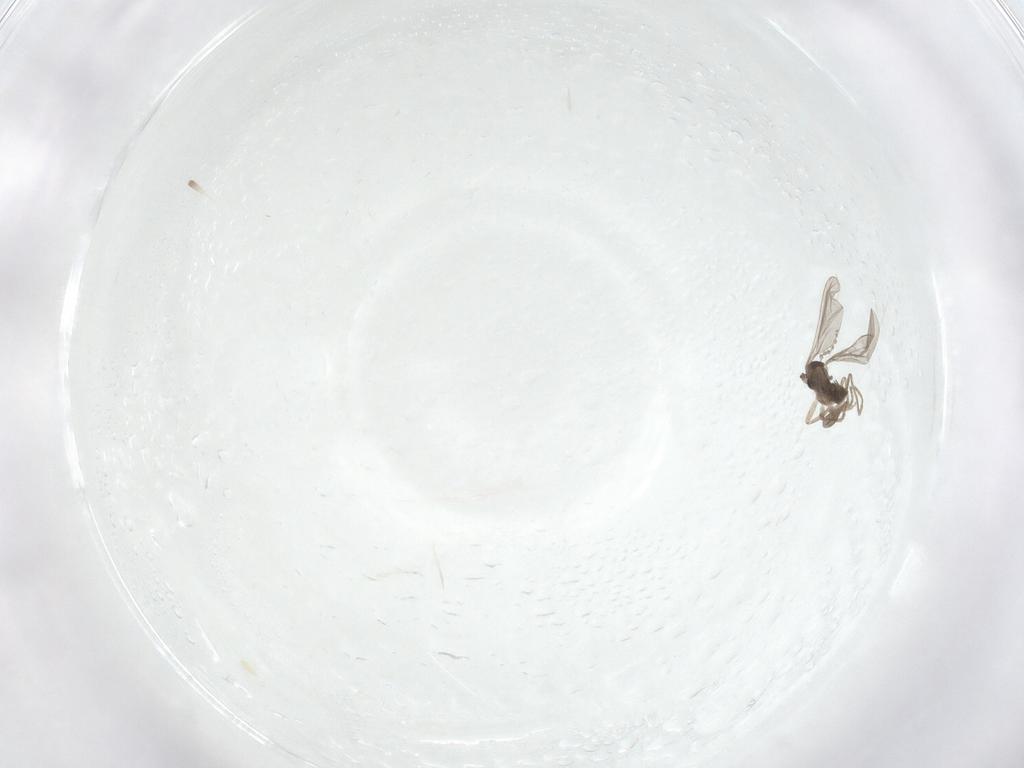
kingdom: Animalia
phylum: Arthropoda
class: Insecta
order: Diptera
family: Cecidomyiidae
